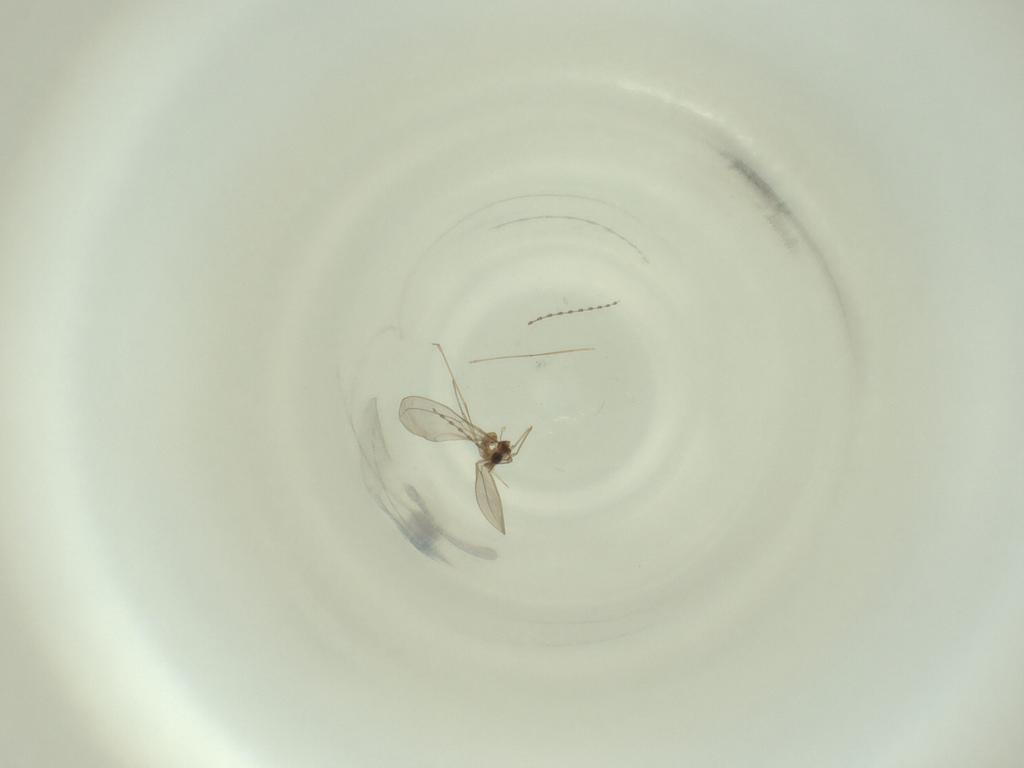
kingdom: Animalia
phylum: Arthropoda
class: Insecta
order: Diptera
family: Cecidomyiidae
